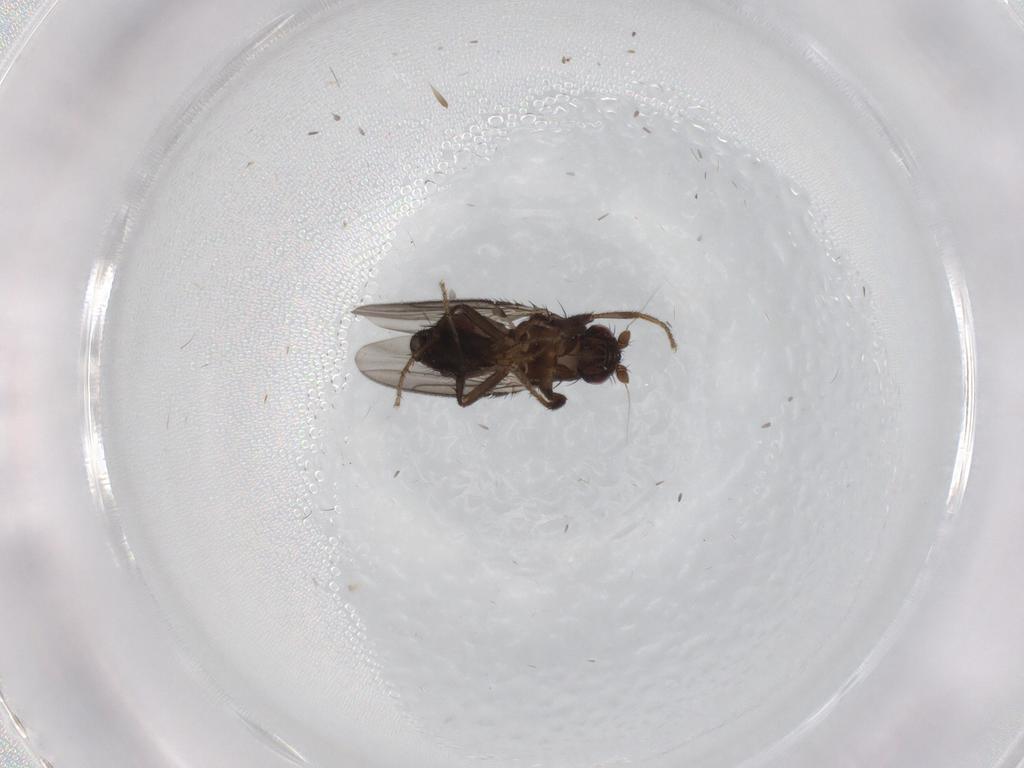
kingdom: Animalia
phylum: Arthropoda
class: Insecta
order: Diptera
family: Sphaeroceridae
